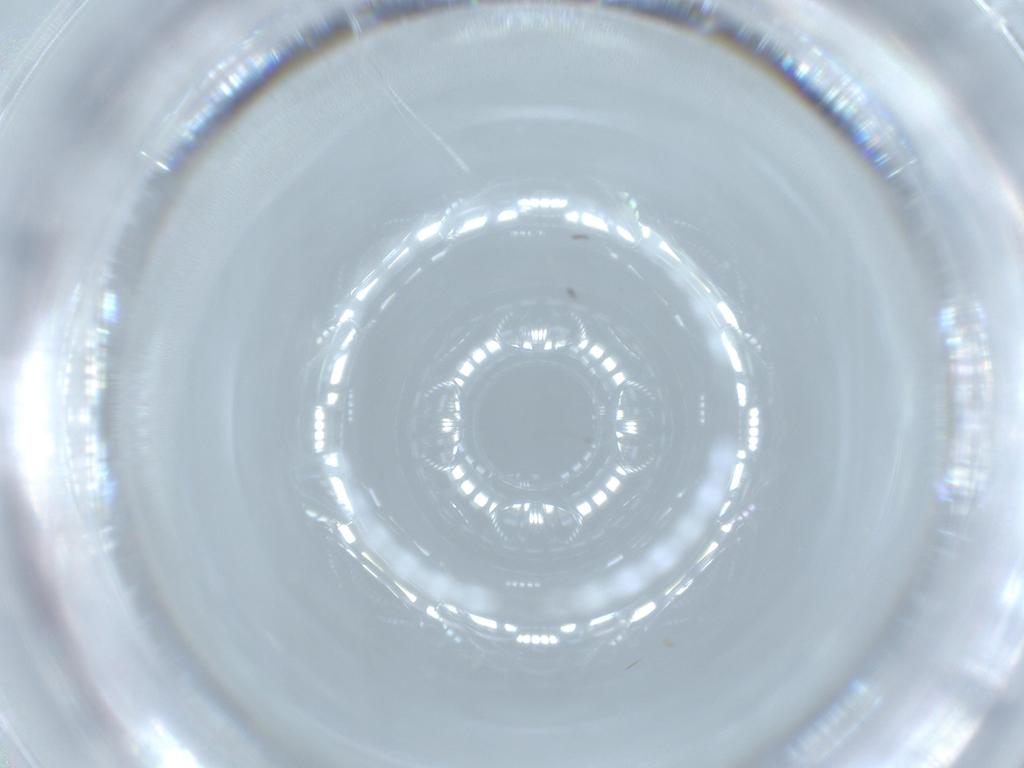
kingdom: Animalia
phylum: Arthropoda
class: Insecta
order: Thysanoptera
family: Thripidae
